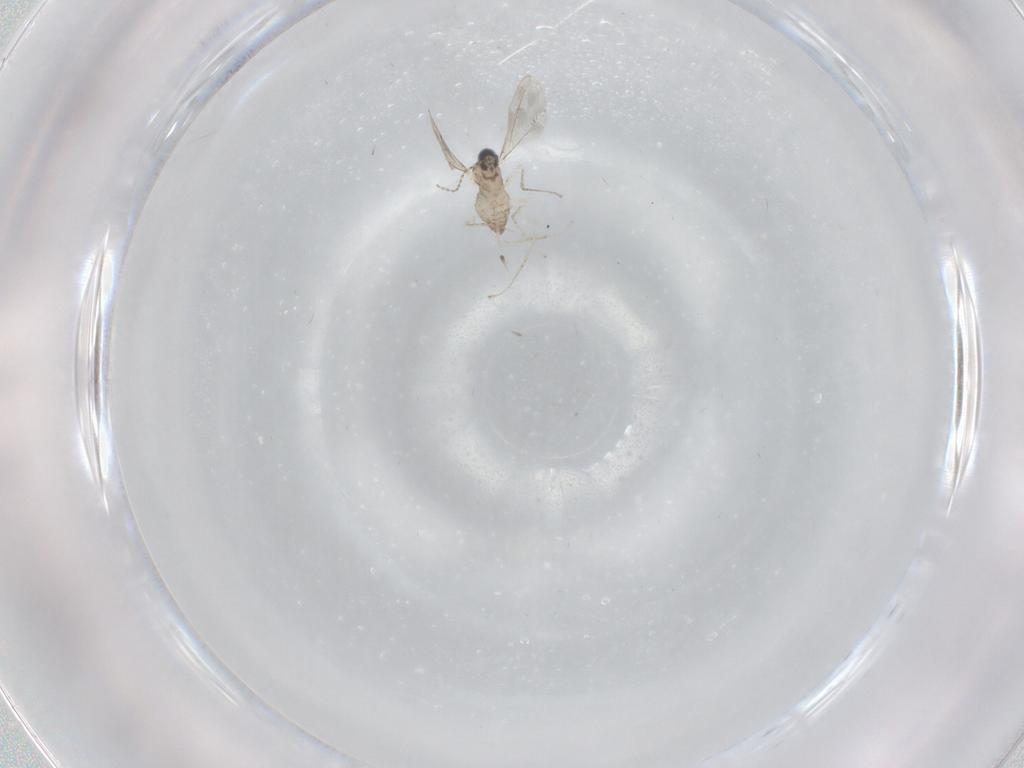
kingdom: Animalia
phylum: Arthropoda
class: Insecta
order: Diptera
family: Cecidomyiidae
